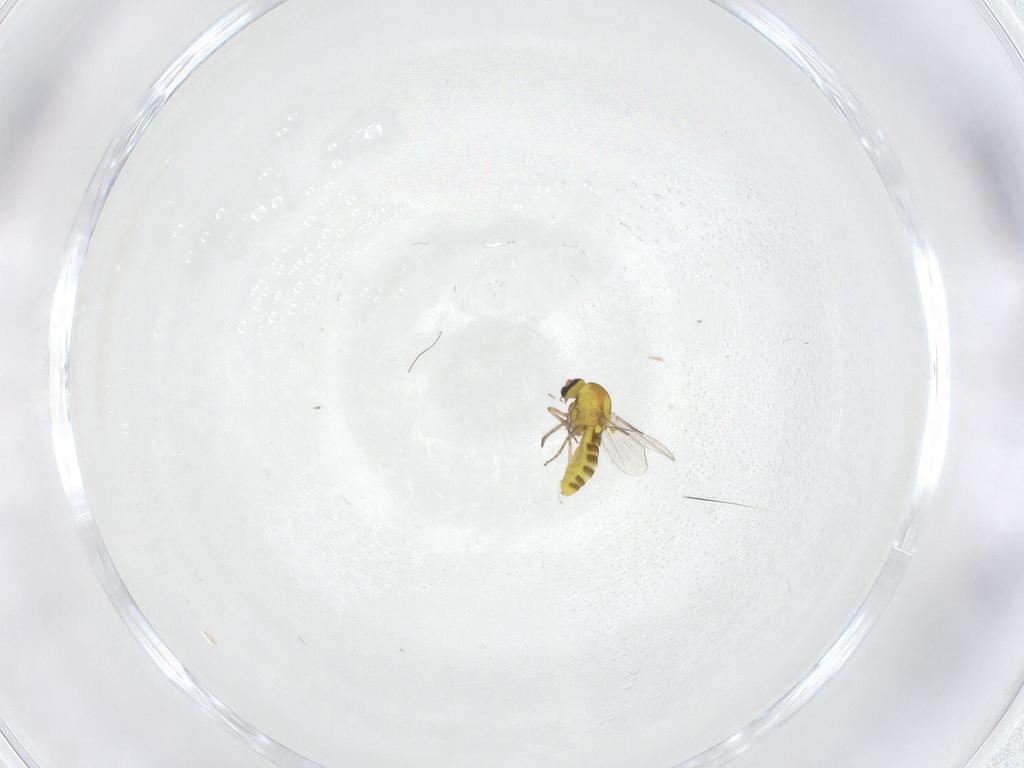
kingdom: Animalia
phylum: Arthropoda
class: Insecta
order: Diptera
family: Ceratopogonidae
